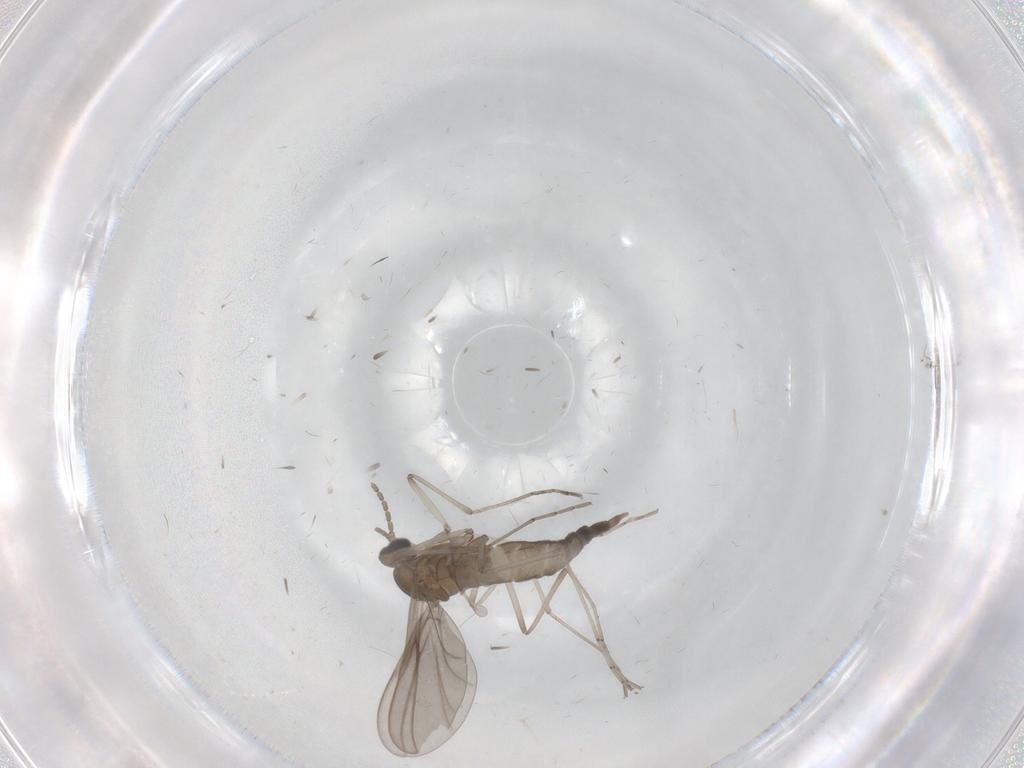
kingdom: Animalia
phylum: Arthropoda
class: Insecta
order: Diptera
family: Cecidomyiidae
